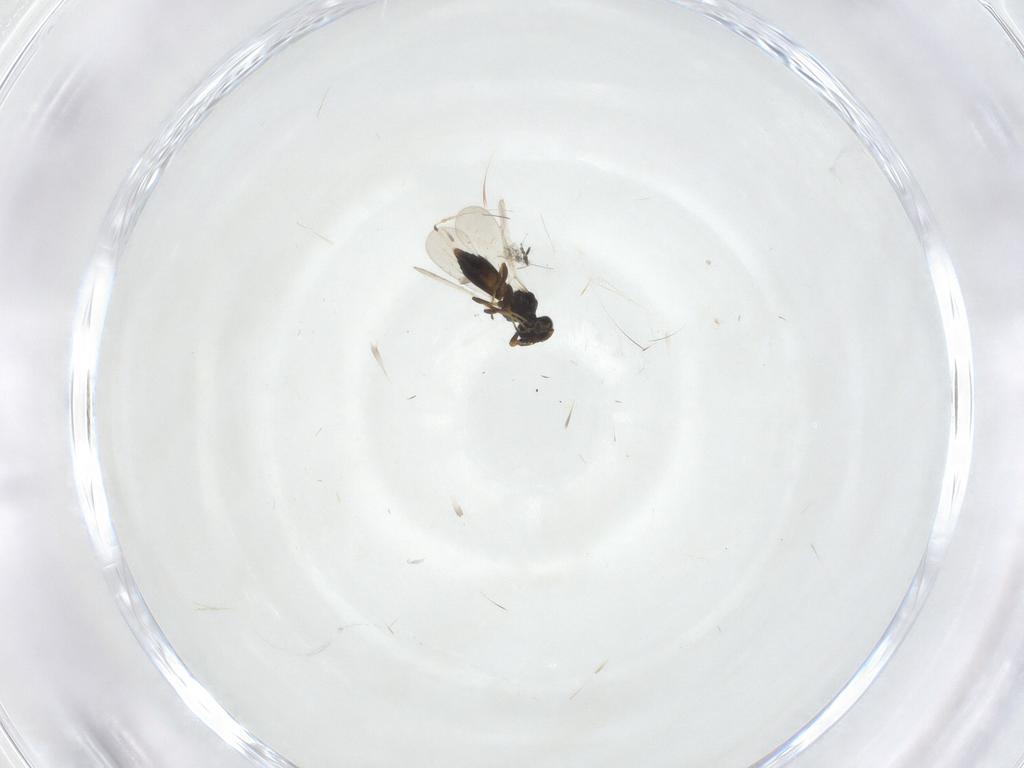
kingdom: Animalia
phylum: Arthropoda
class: Insecta
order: Hymenoptera
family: Platygastridae
